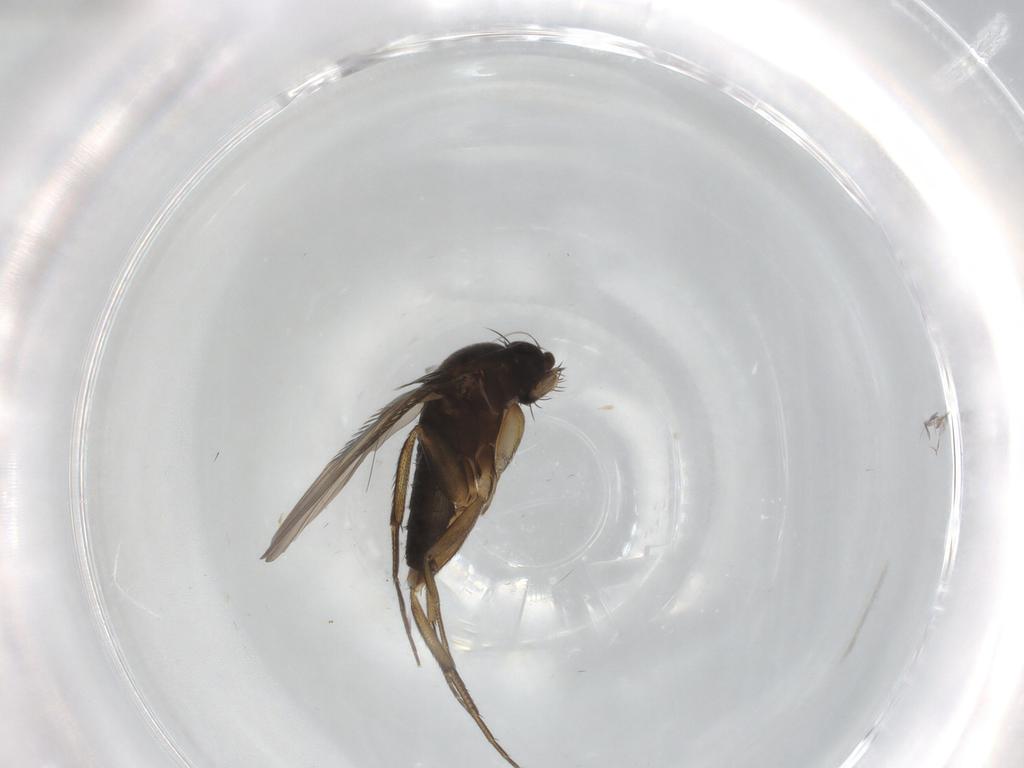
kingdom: Animalia
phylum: Arthropoda
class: Insecta
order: Diptera
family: Phoridae
